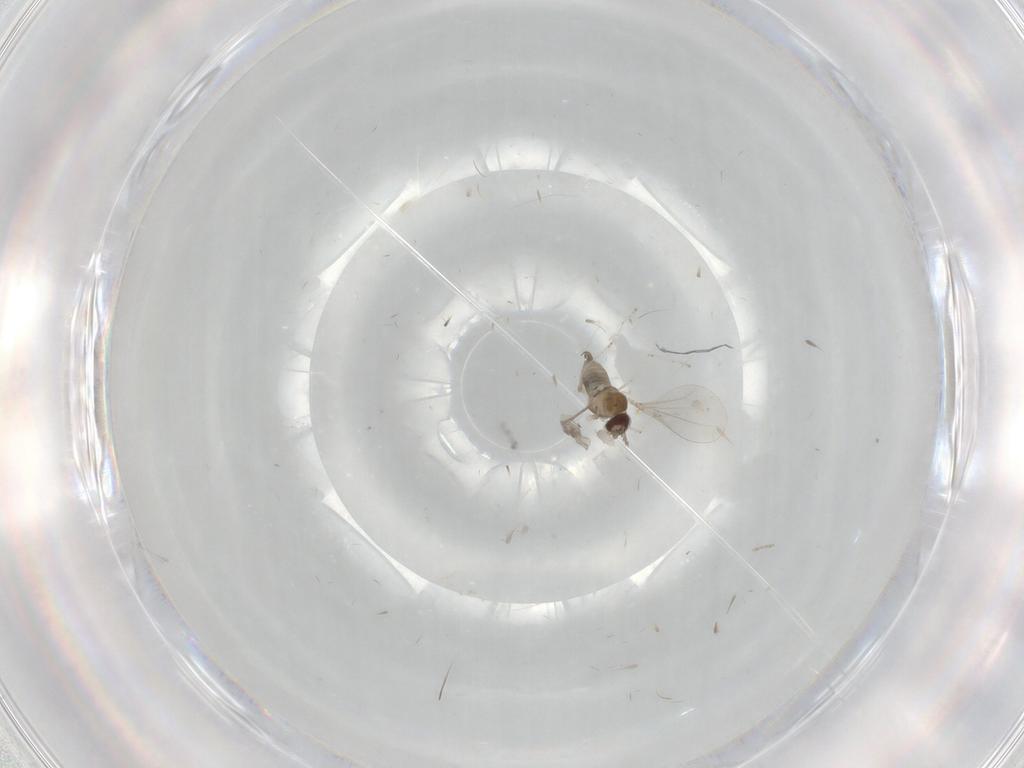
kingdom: Animalia
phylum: Arthropoda
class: Insecta
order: Diptera
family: Cecidomyiidae
